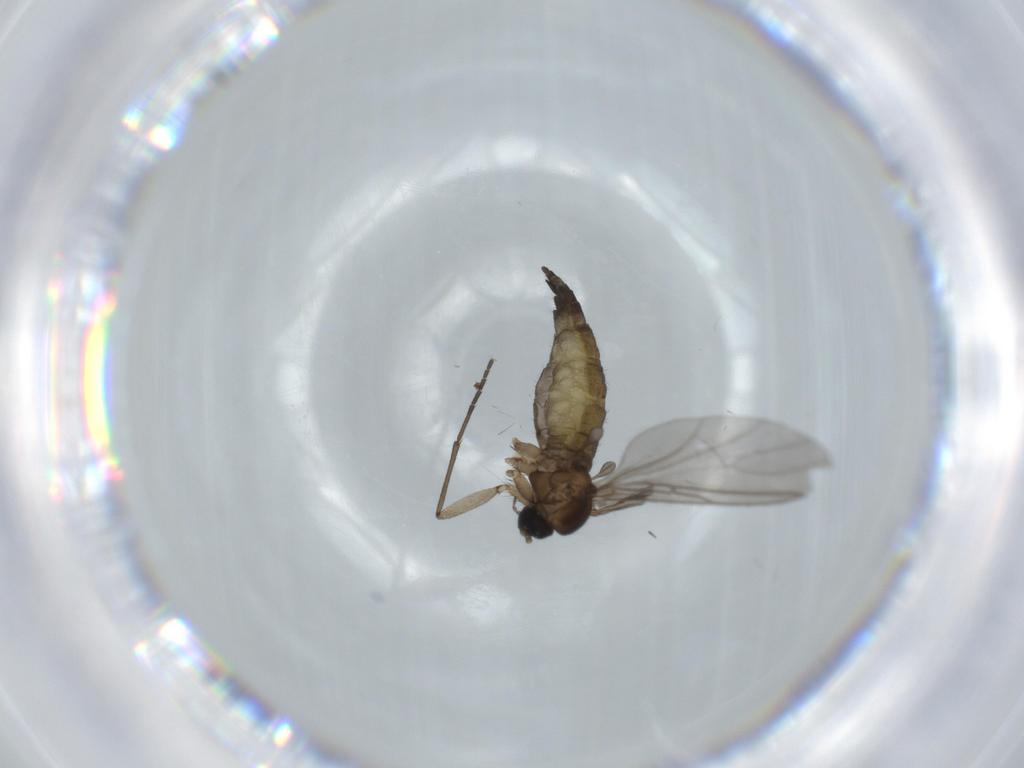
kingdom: Animalia
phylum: Arthropoda
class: Insecta
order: Diptera
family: Sciaridae
